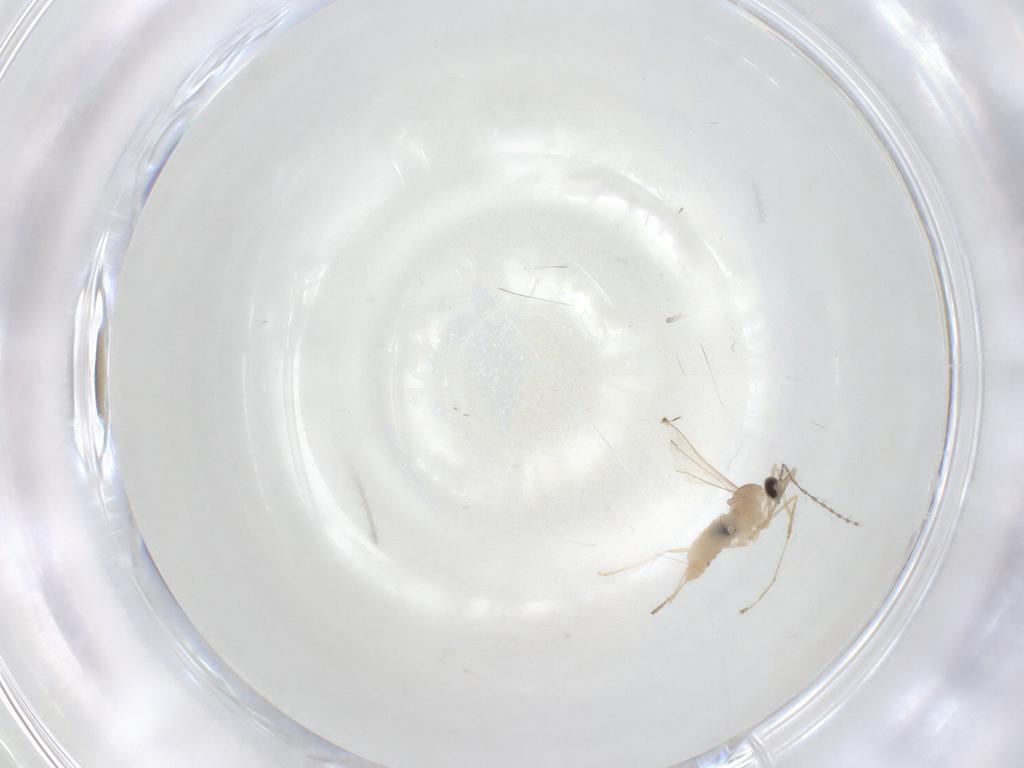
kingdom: Animalia
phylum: Arthropoda
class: Insecta
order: Diptera
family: Cecidomyiidae
